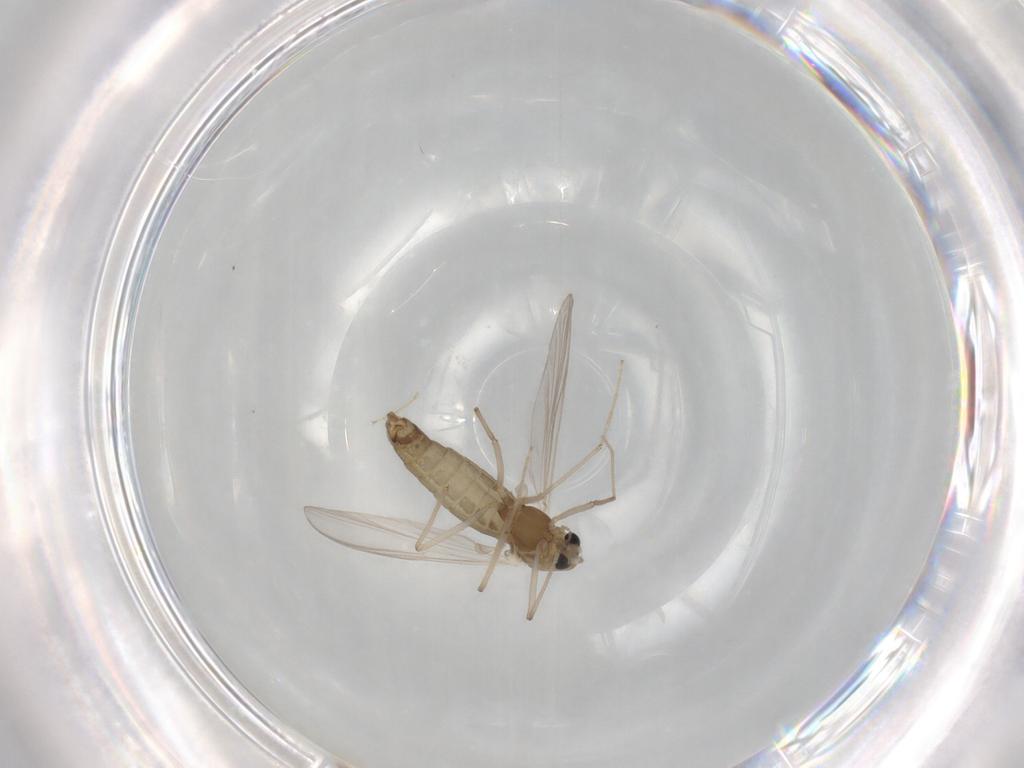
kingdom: Animalia
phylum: Arthropoda
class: Insecta
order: Diptera
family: Chironomidae
